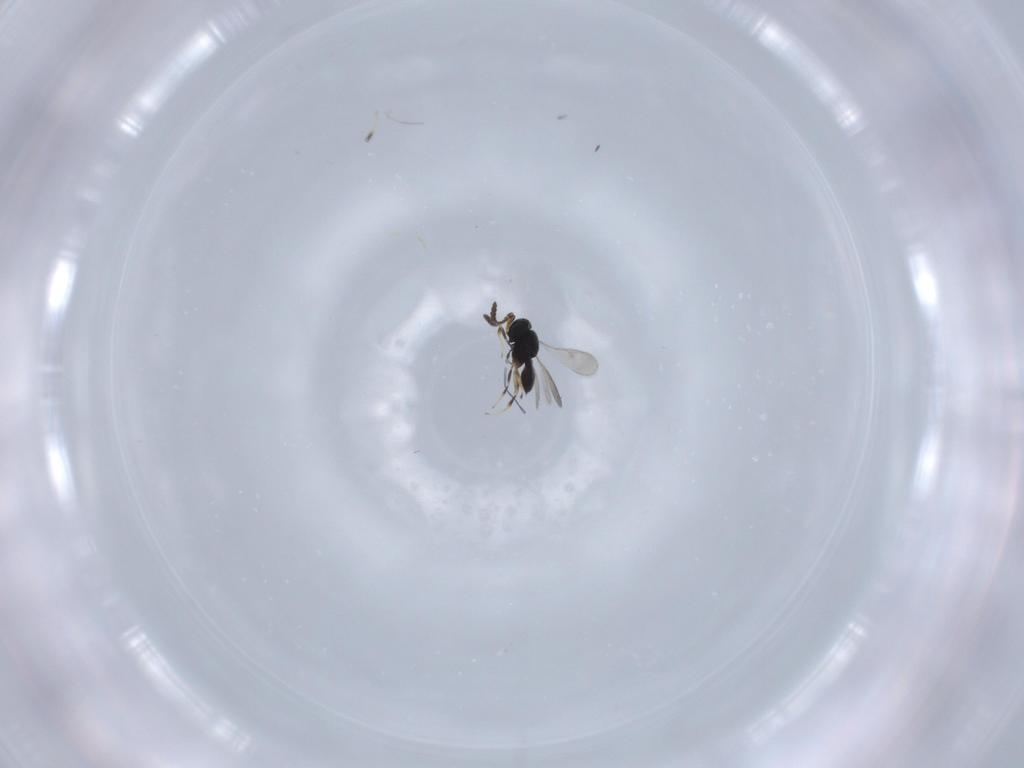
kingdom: Animalia
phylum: Arthropoda
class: Insecta
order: Hymenoptera
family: Scelionidae
